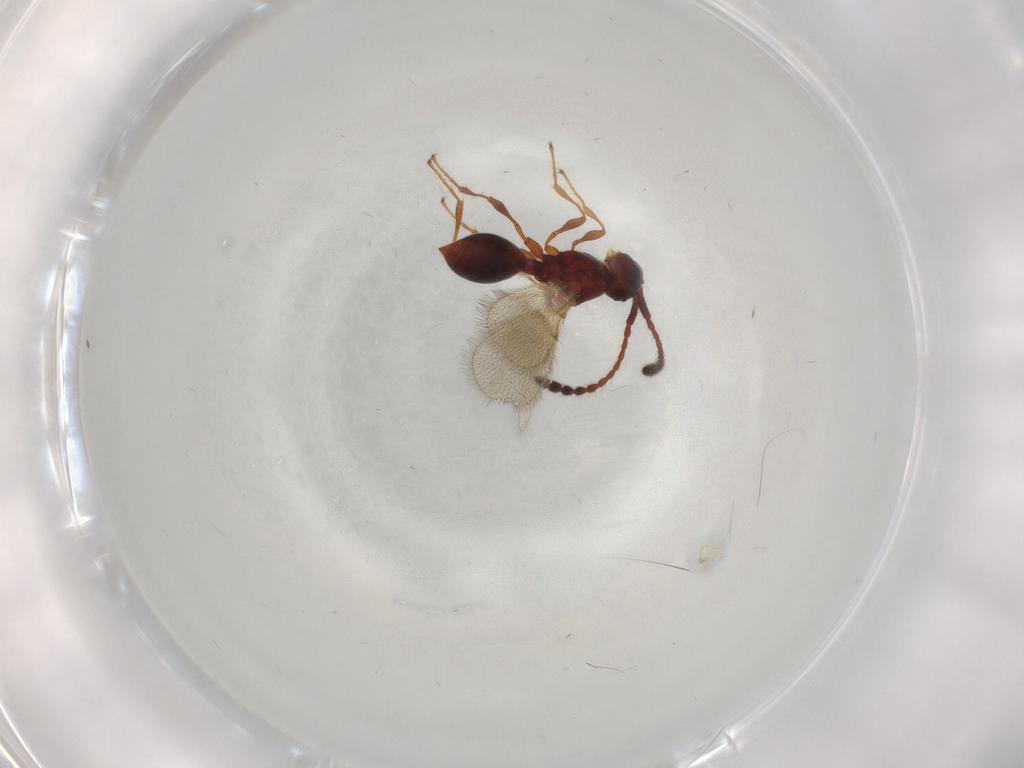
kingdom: Animalia
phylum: Arthropoda
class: Insecta
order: Hymenoptera
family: Diapriidae
